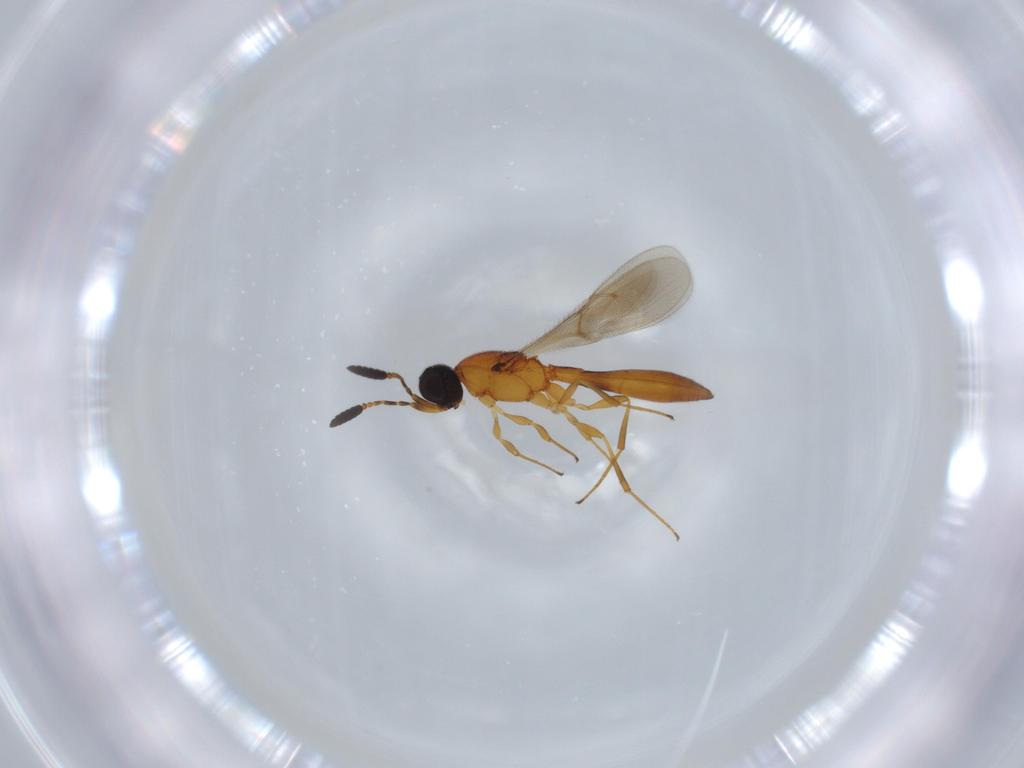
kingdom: Animalia
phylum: Arthropoda
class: Insecta
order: Hymenoptera
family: Scelionidae
